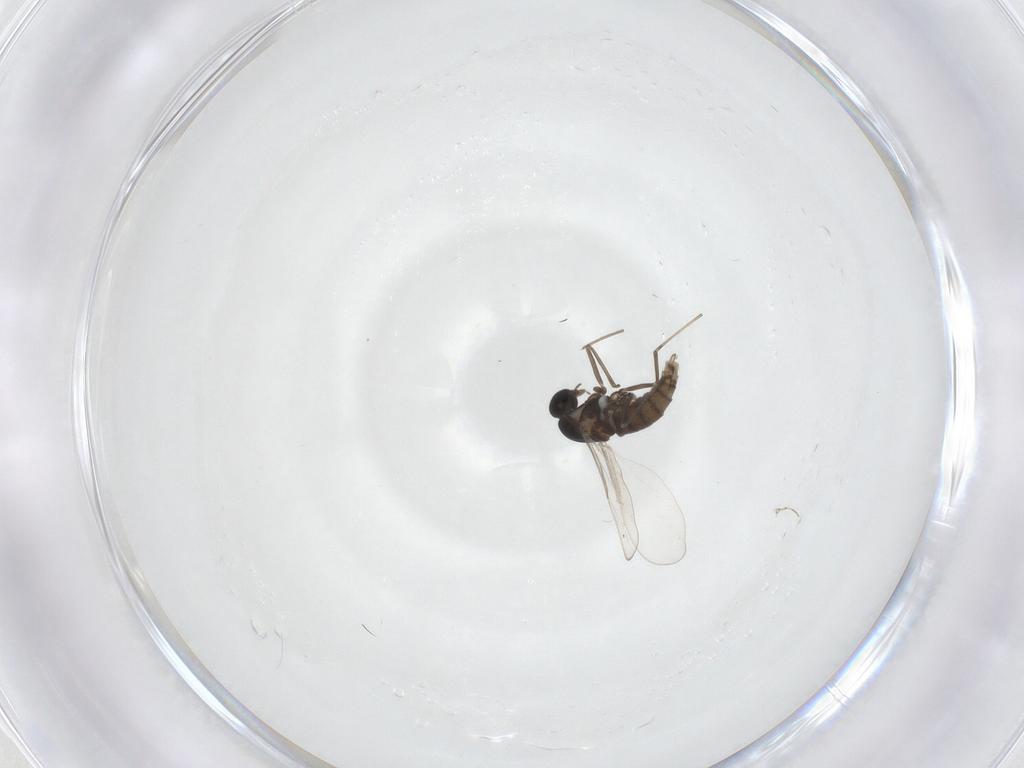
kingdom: Animalia
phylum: Arthropoda
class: Insecta
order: Diptera
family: Cecidomyiidae
